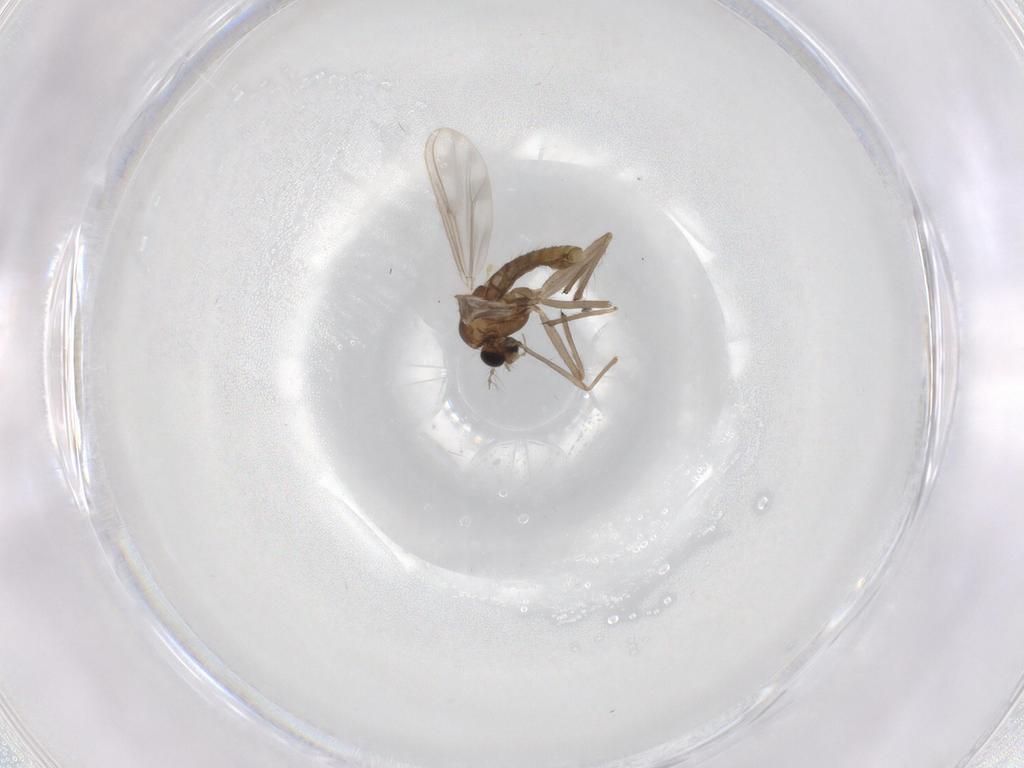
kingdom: Animalia
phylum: Arthropoda
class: Insecta
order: Diptera
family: Chironomidae
